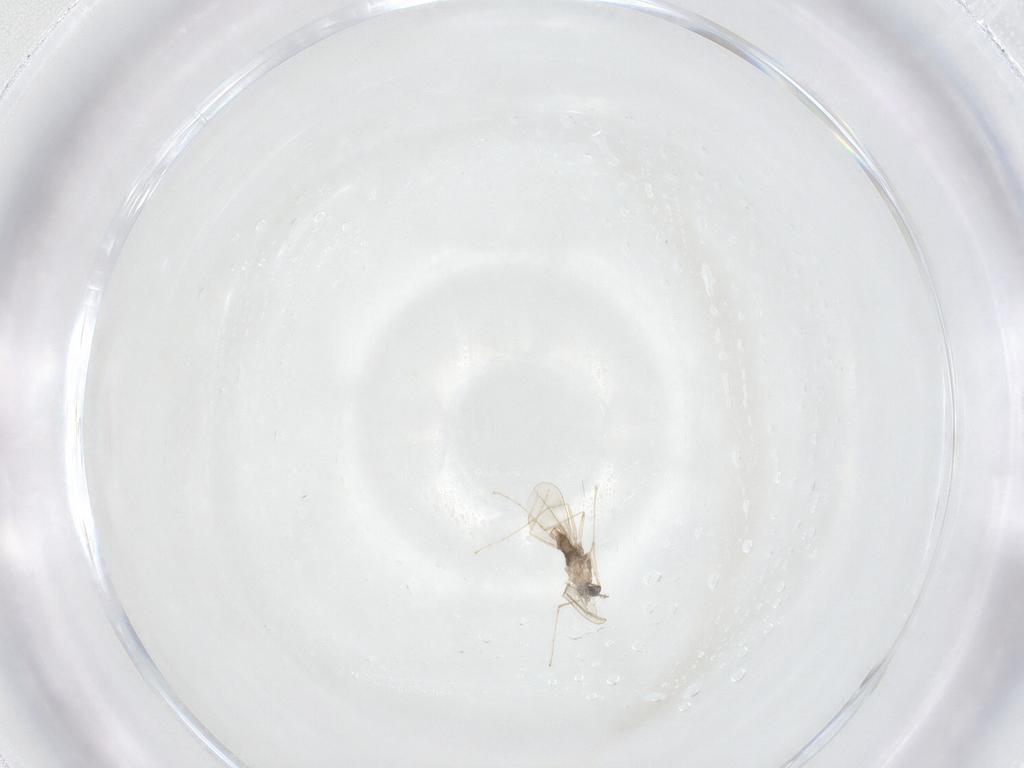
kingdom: Animalia
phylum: Arthropoda
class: Insecta
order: Diptera
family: Cecidomyiidae
